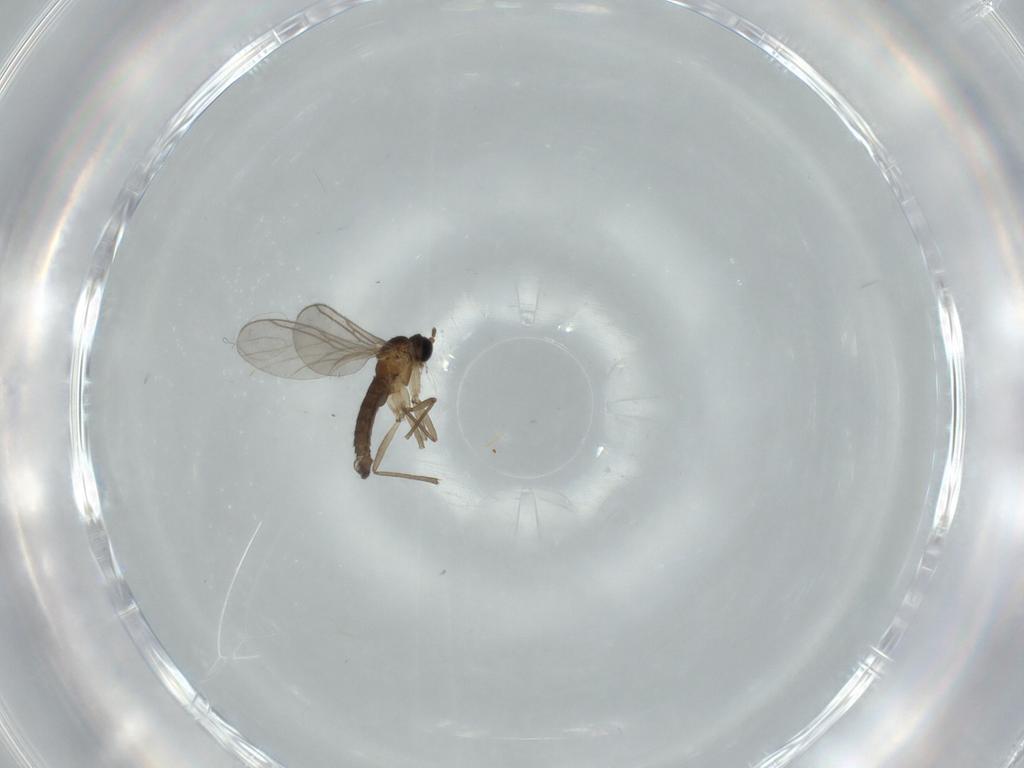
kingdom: Animalia
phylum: Arthropoda
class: Insecta
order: Diptera
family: Sciaridae
